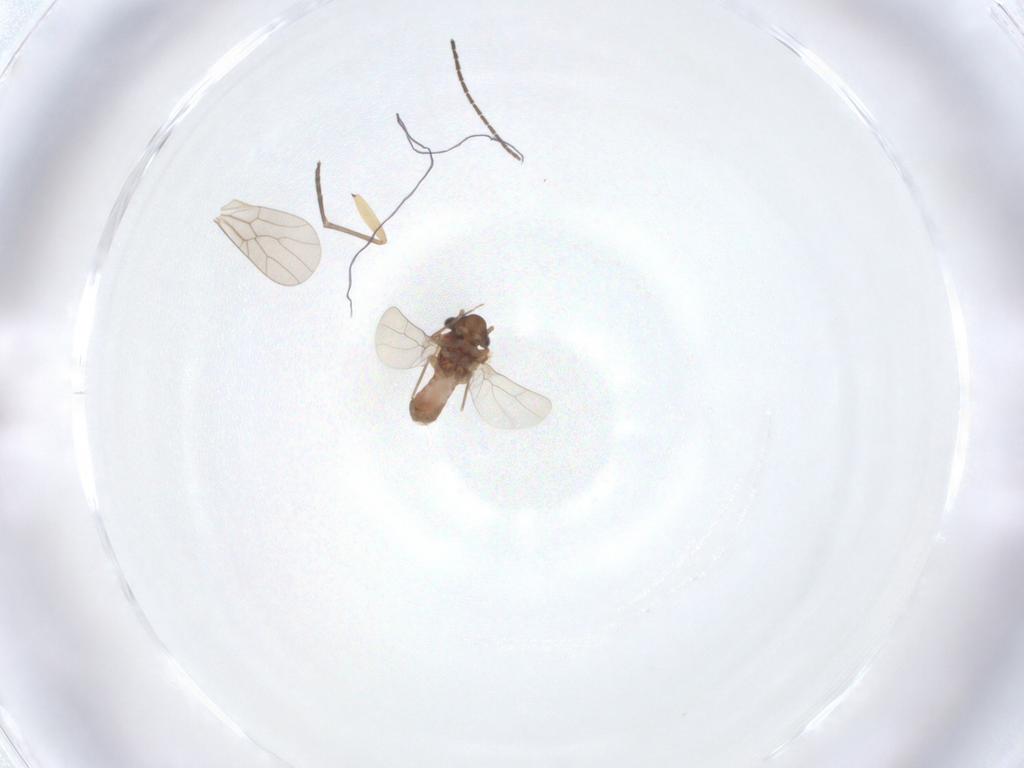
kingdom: Animalia
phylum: Arthropoda
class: Insecta
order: Diptera
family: Sciaridae
